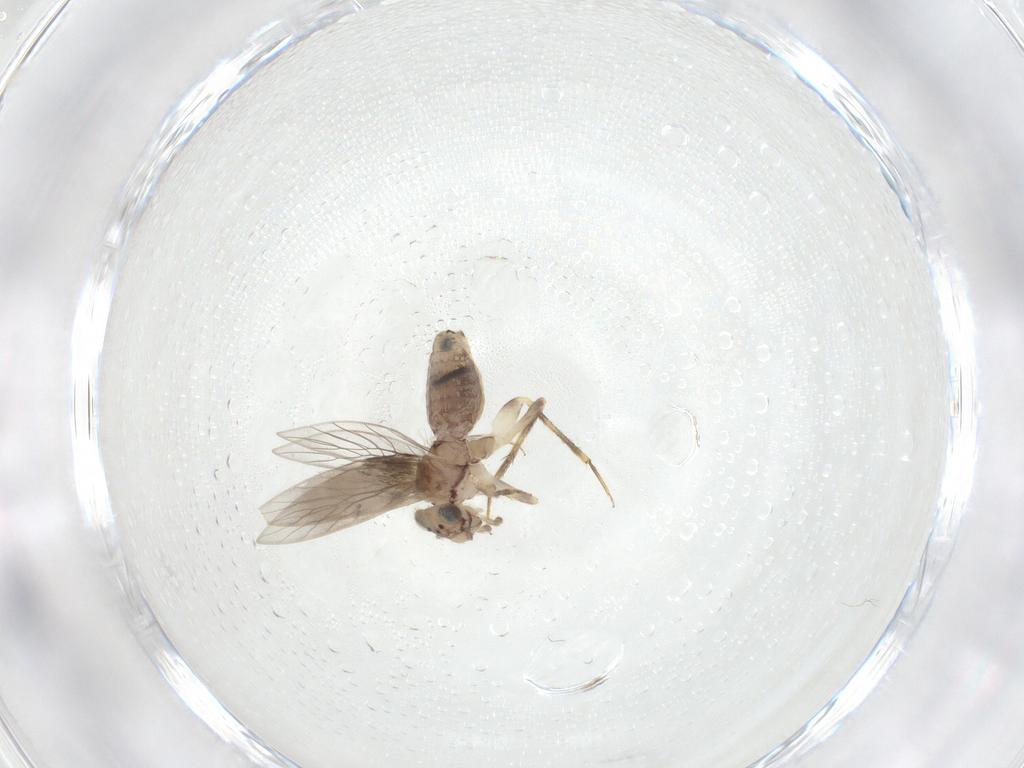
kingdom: Animalia
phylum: Arthropoda
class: Insecta
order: Psocodea
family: Lepidopsocidae
